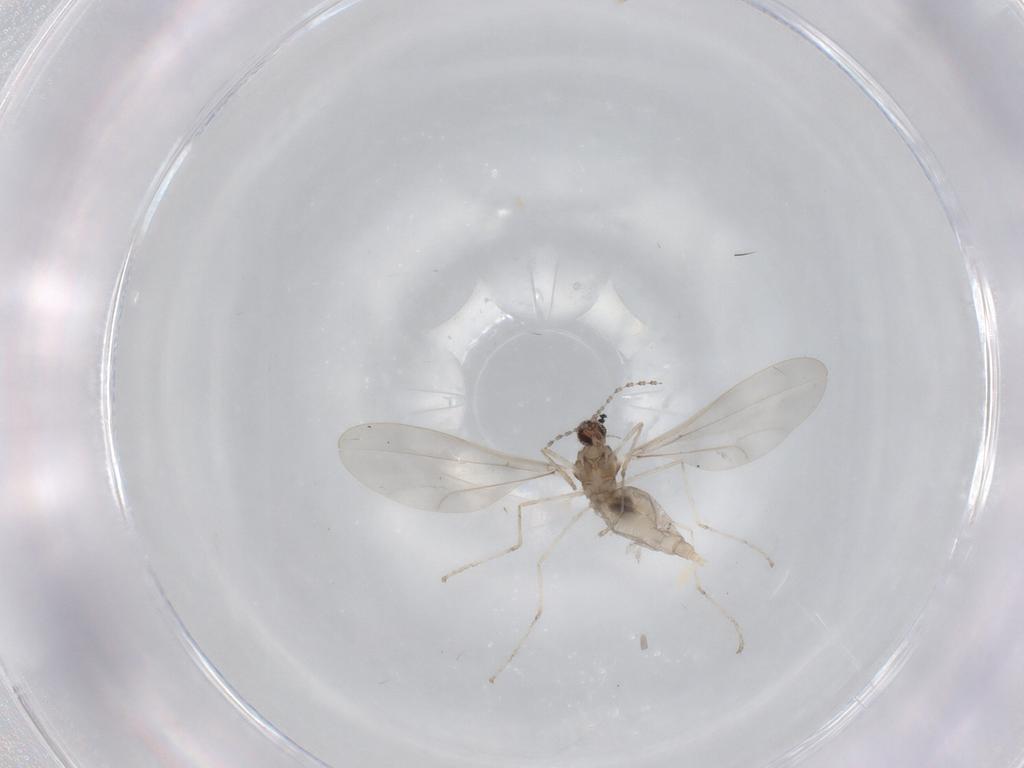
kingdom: Animalia
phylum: Arthropoda
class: Insecta
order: Diptera
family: Cecidomyiidae
